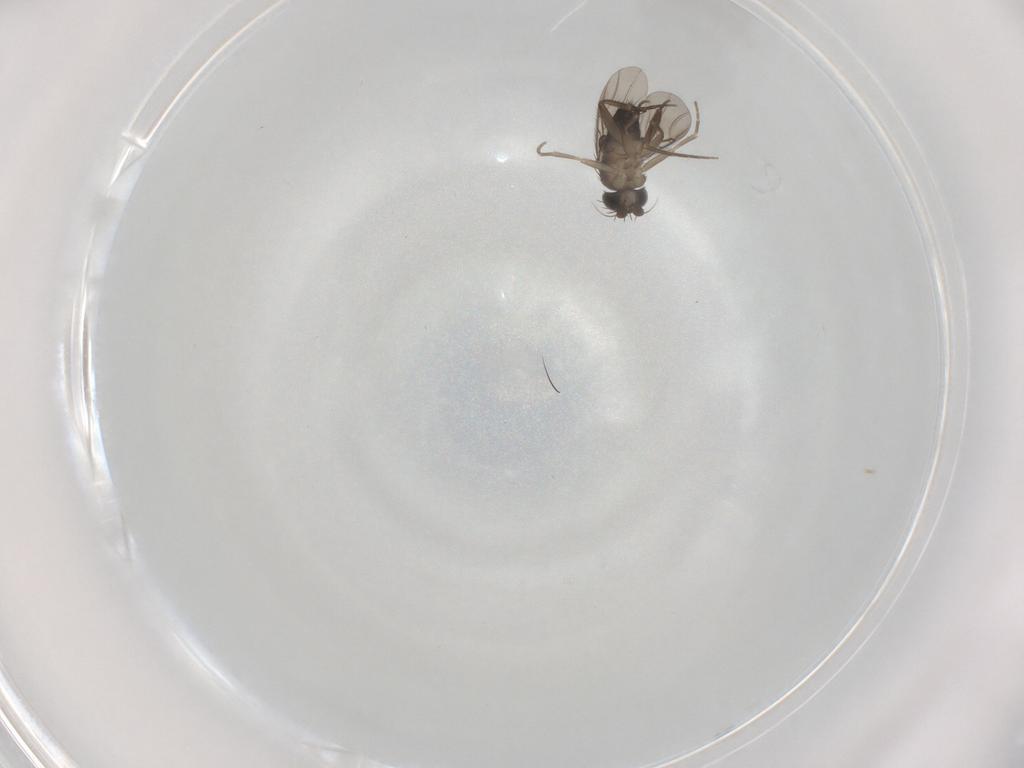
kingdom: Animalia
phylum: Arthropoda
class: Insecta
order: Diptera
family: Phoridae
